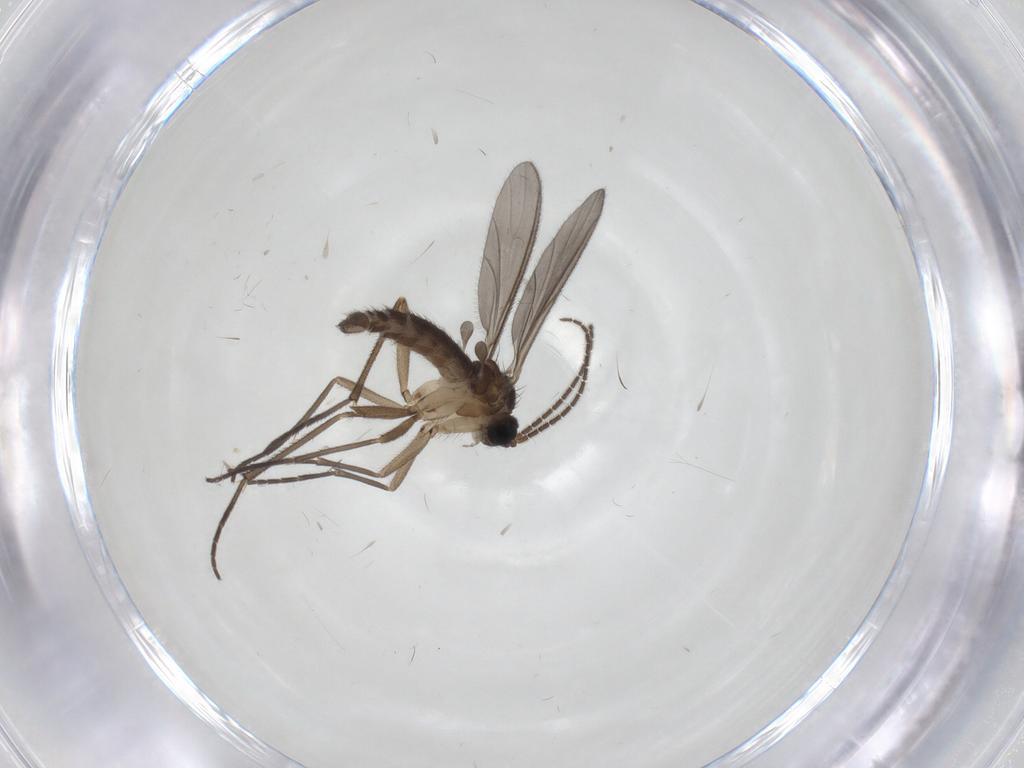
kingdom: Animalia
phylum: Arthropoda
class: Insecta
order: Diptera
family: Sciaridae
